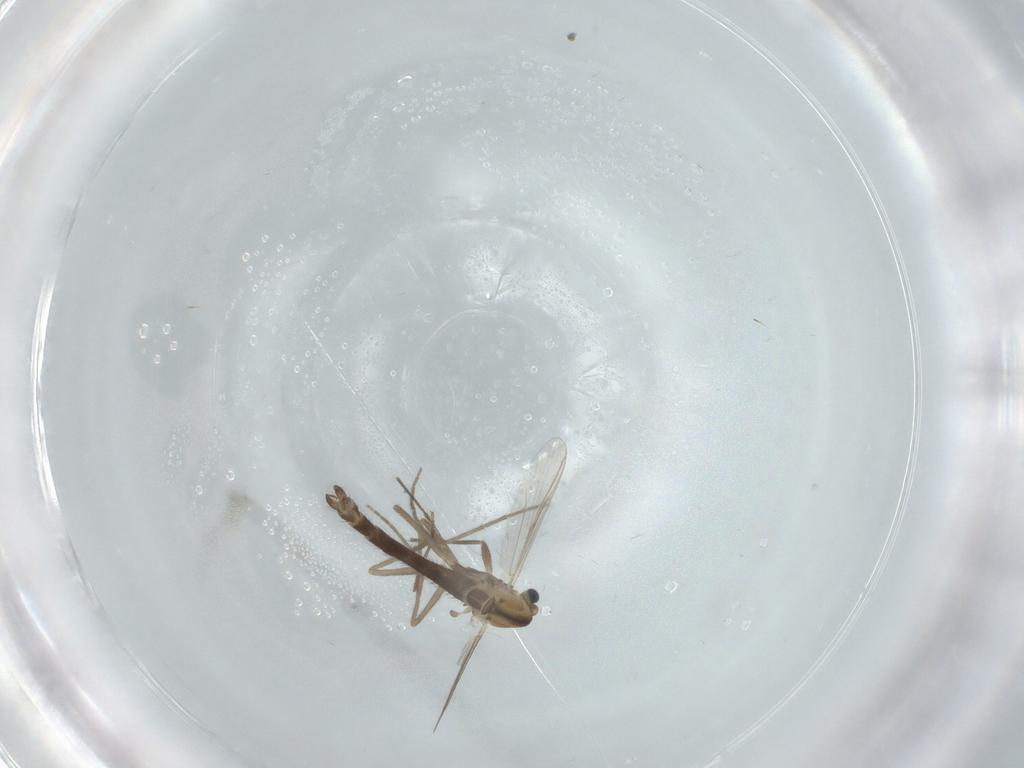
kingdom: Animalia
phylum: Arthropoda
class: Insecta
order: Diptera
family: Chironomidae
